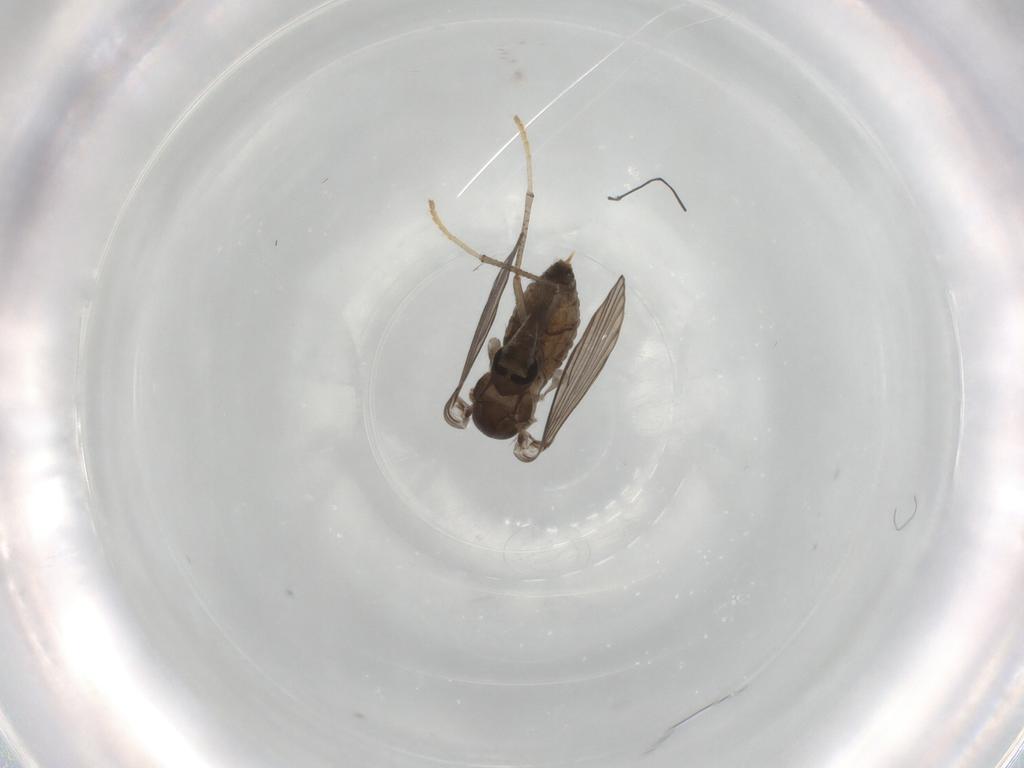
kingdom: Animalia
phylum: Arthropoda
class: Insecta
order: Diptera
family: Psychodidae
